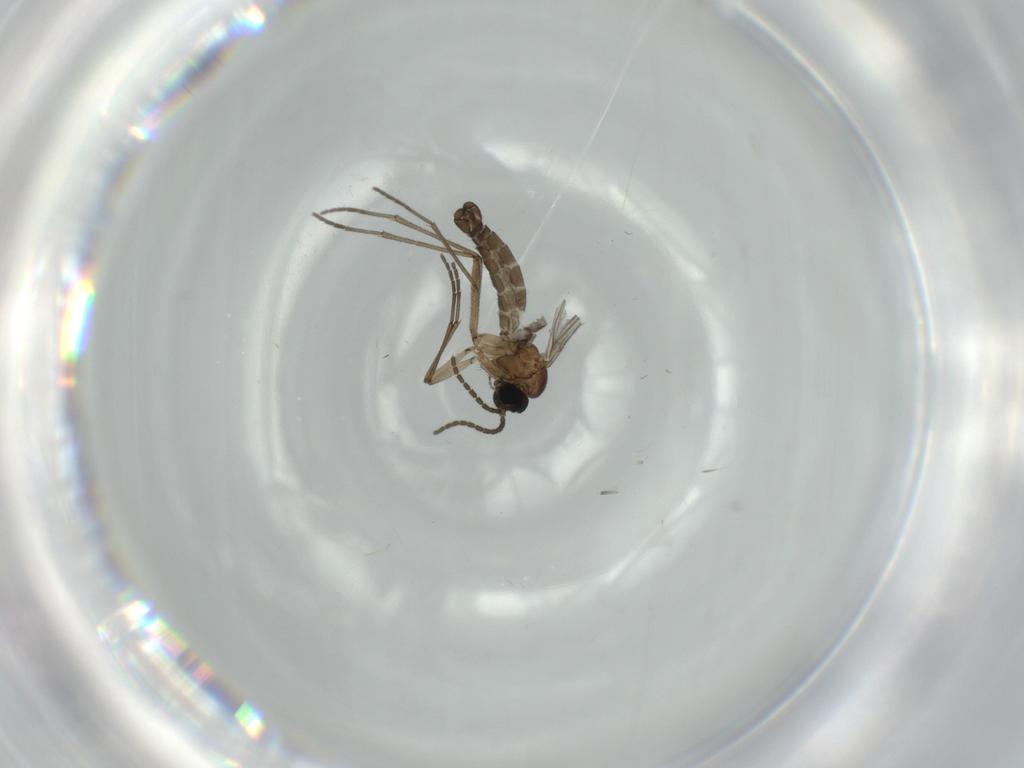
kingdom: Animalia
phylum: Arthropoda
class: Insecta
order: Diptera
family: Sciaridae
